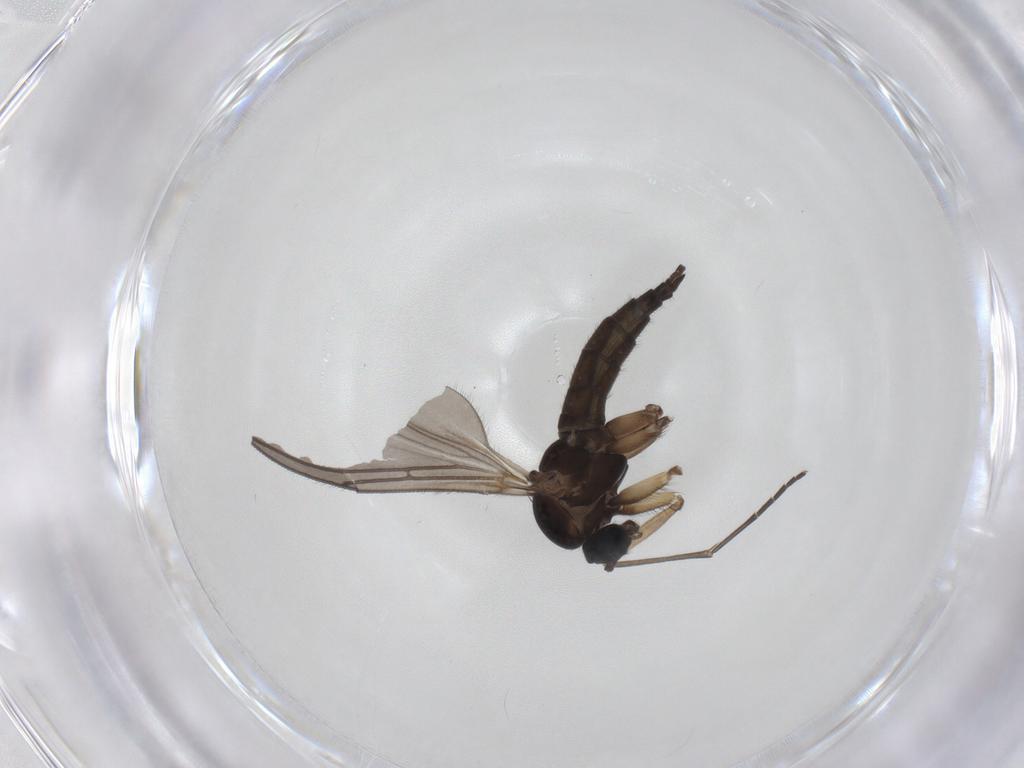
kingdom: Animalia
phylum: Arthropoda
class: Insecta
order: Diptera
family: Sciaridae
